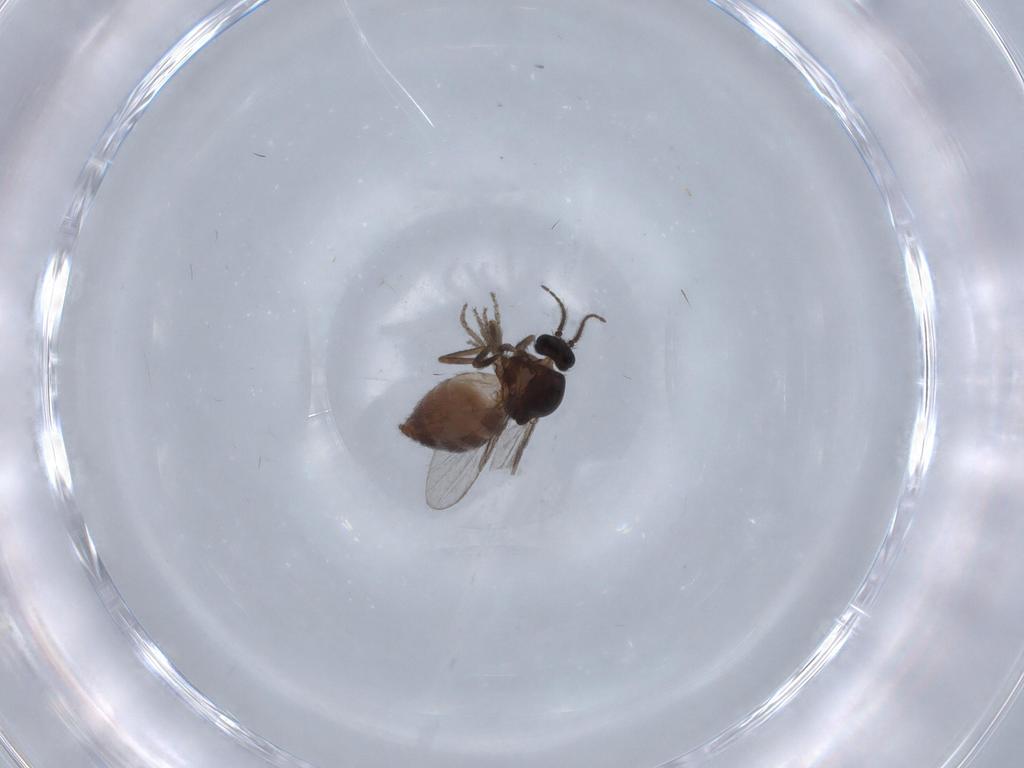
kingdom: Animalia
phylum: Arthropoda
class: Insecta
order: Diptera
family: Ceratopogonidae
